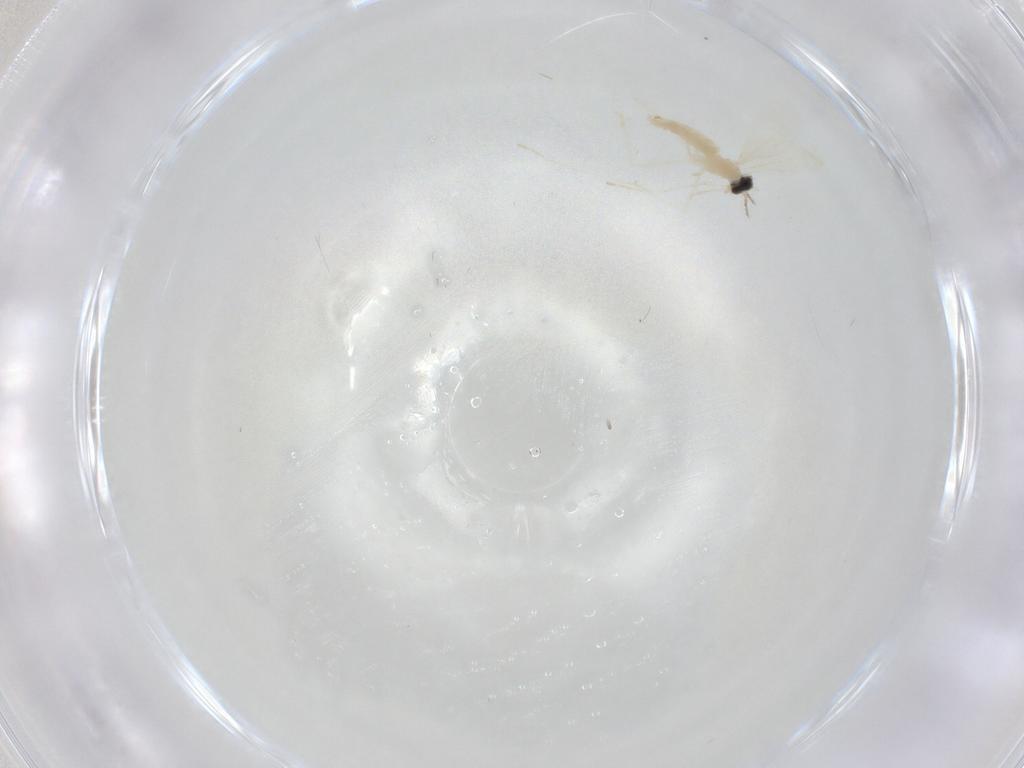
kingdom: Animalia
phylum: Arthropoda
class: Insecta
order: Diptera
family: Cecidomyiidae
